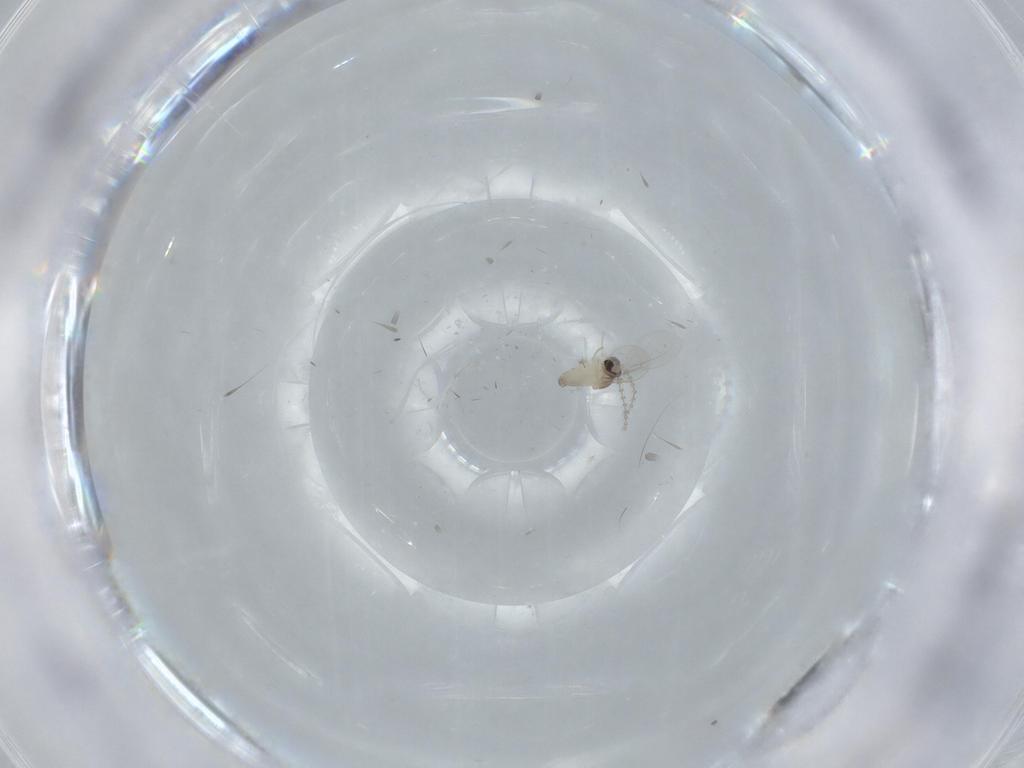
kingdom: Animalia
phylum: Arthropoda
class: Insecta
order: Diptera
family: Cecidomyiidae
